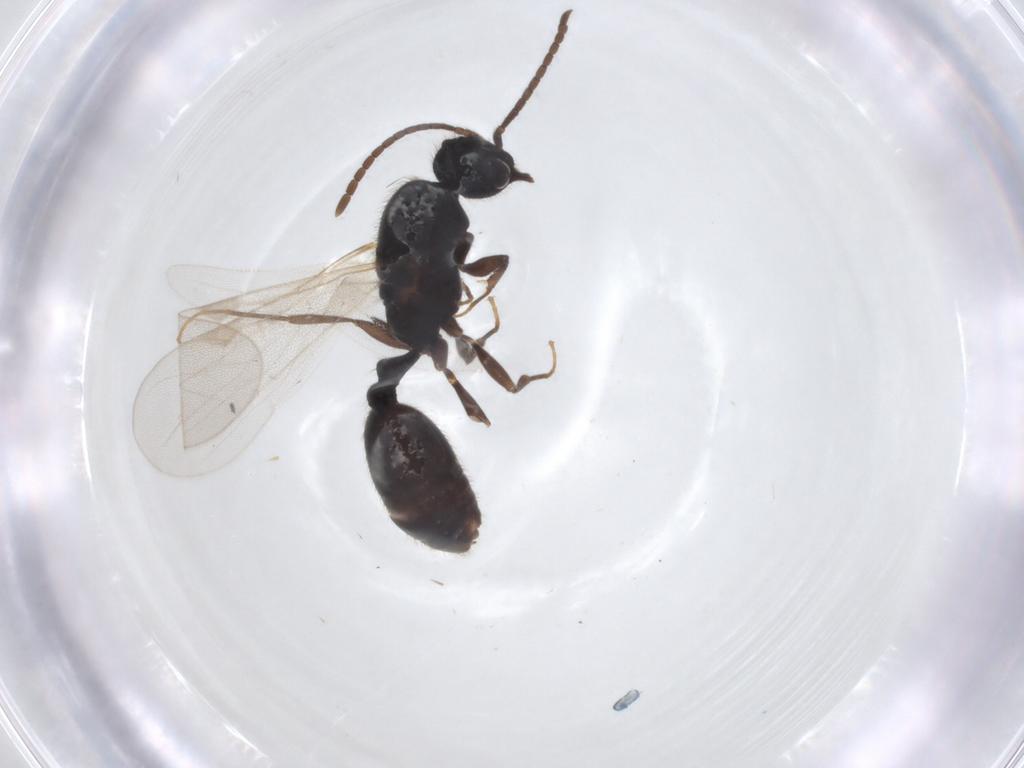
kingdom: Animalia
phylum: Arthropoda
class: Insecta
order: Hymenoptera
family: Formicidae
